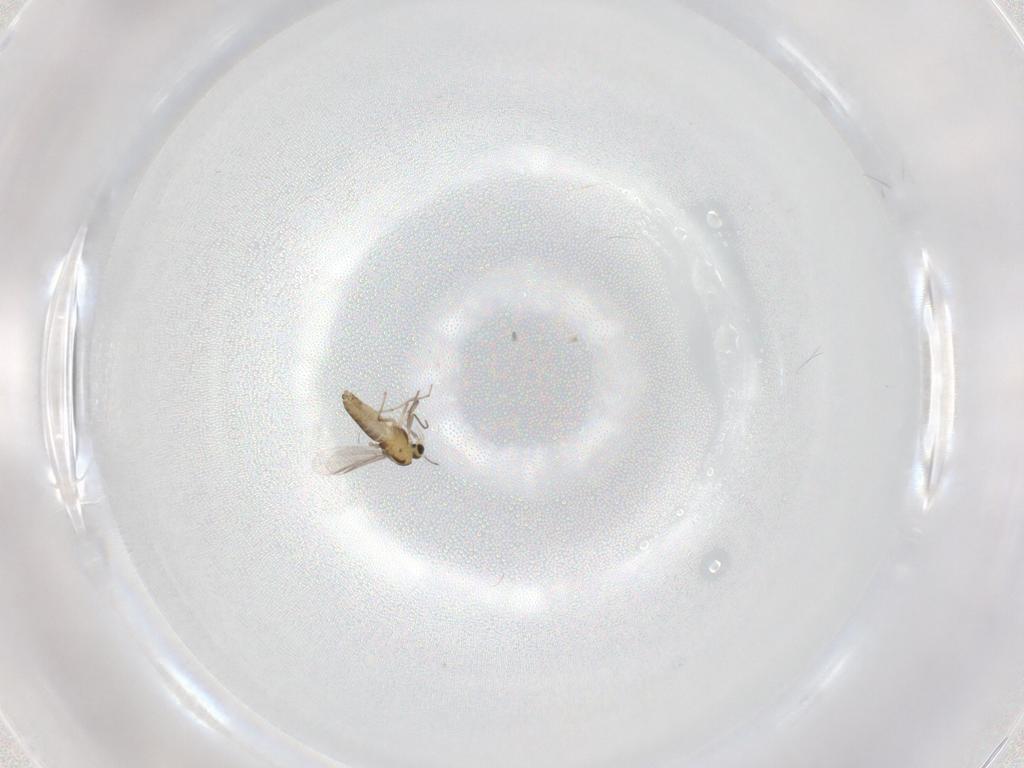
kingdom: Animalia
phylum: Arthropoda
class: Insecta
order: Diptera
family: Chironomidae
